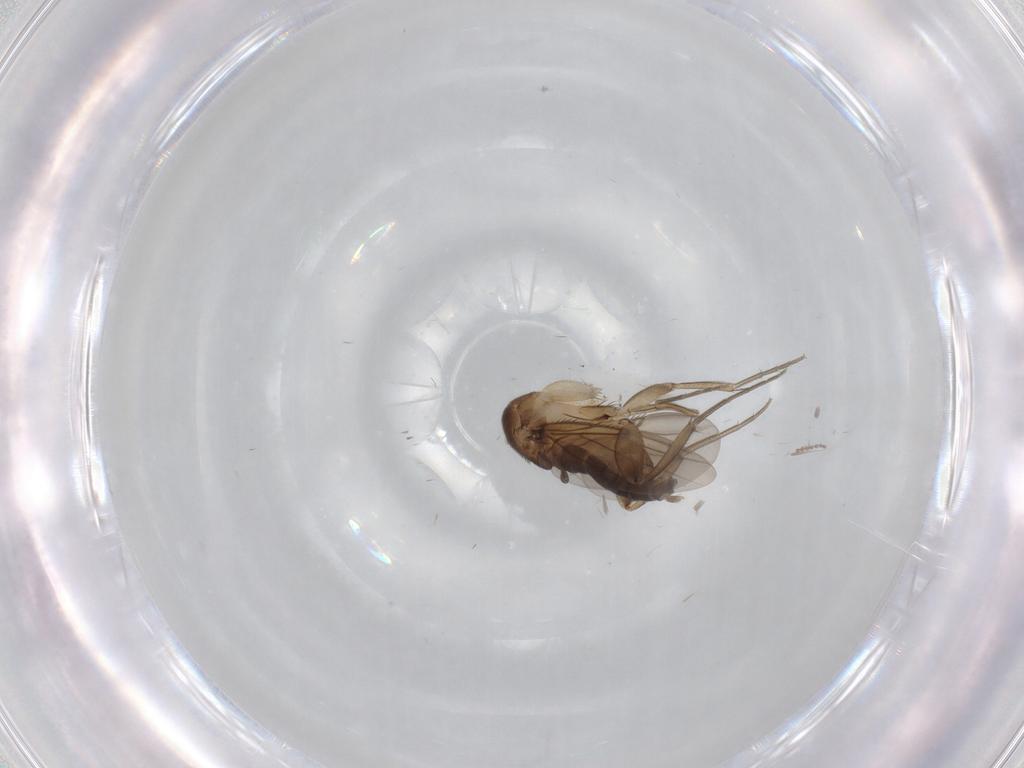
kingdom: Animalia
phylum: Arthropoda
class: Insecta
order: Diptera
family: Phoridae
